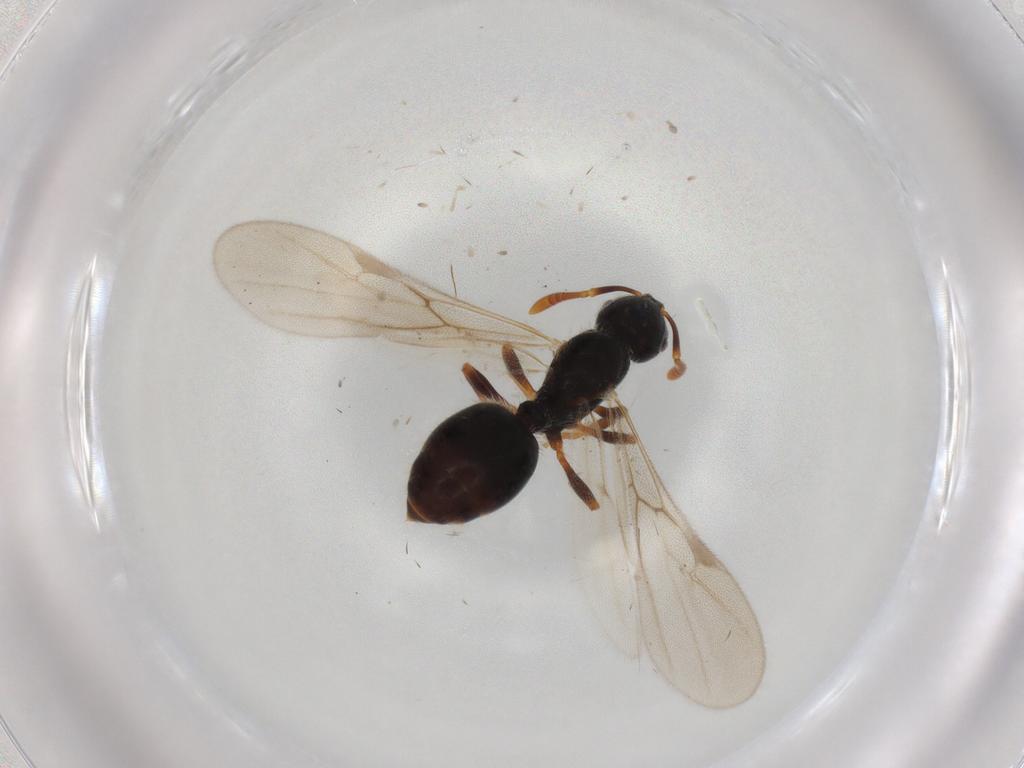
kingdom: Animalia
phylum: Arthropoda
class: Insecta
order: Hymenoptera
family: Formicidae
